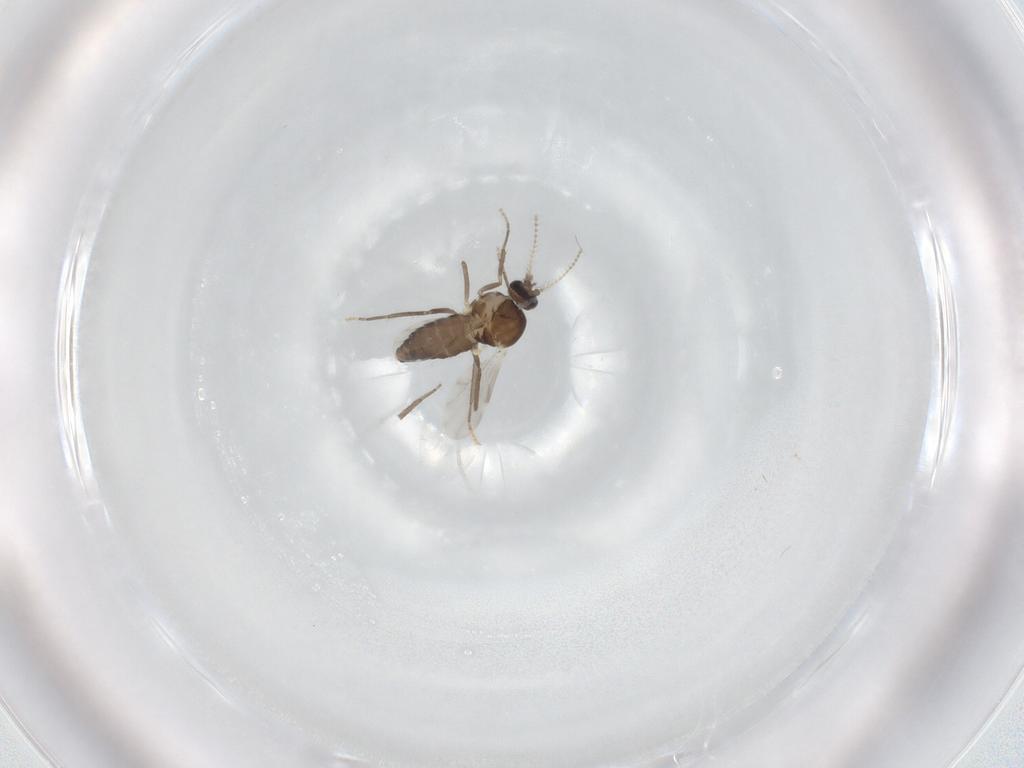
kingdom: Animalia
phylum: Arthropoda
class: Insecta
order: Diptera
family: Ceratopogonidae
